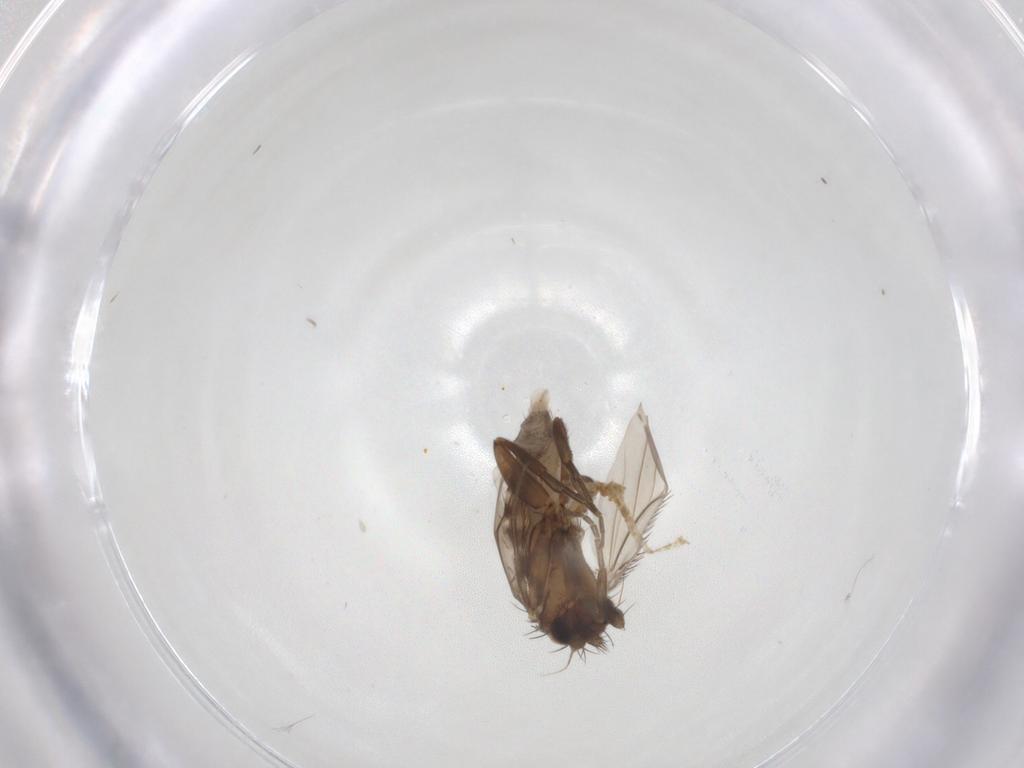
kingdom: Animalia
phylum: Arthropoda
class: Insecta
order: Diptera
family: Phoridae
